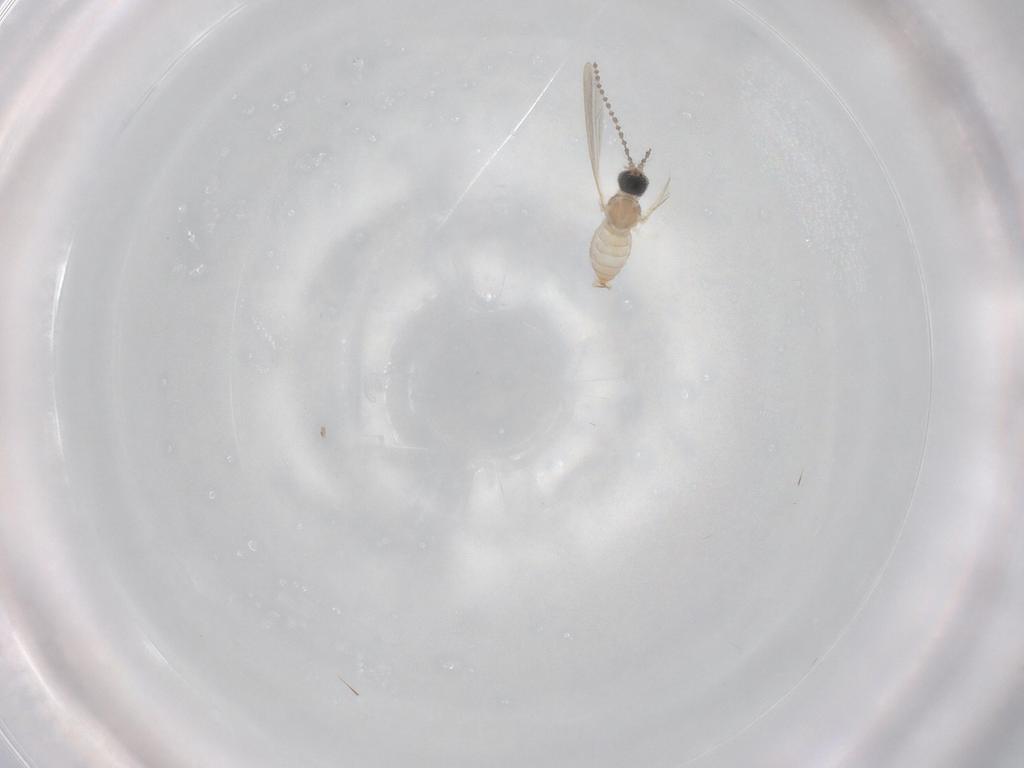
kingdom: Animalia
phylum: Arthropoda
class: Insecta
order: Diptera
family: Cecidomyiidae
